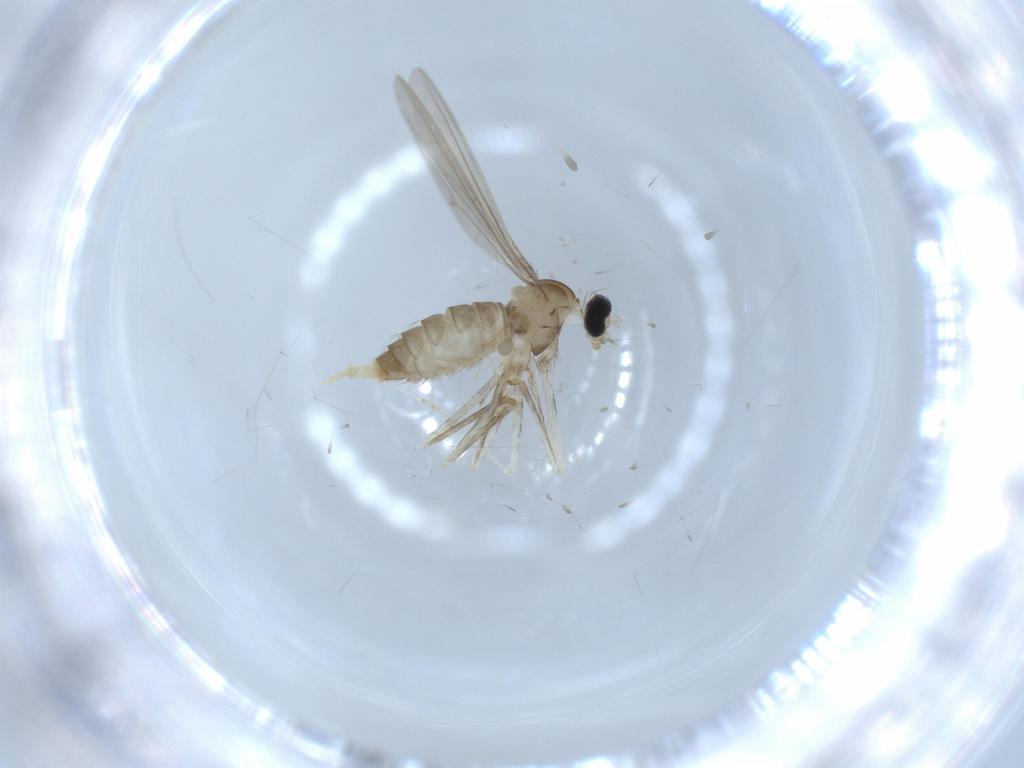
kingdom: Animalia
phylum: Arthropoda
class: Insecta
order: Diptera
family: Cecidomyiidae
